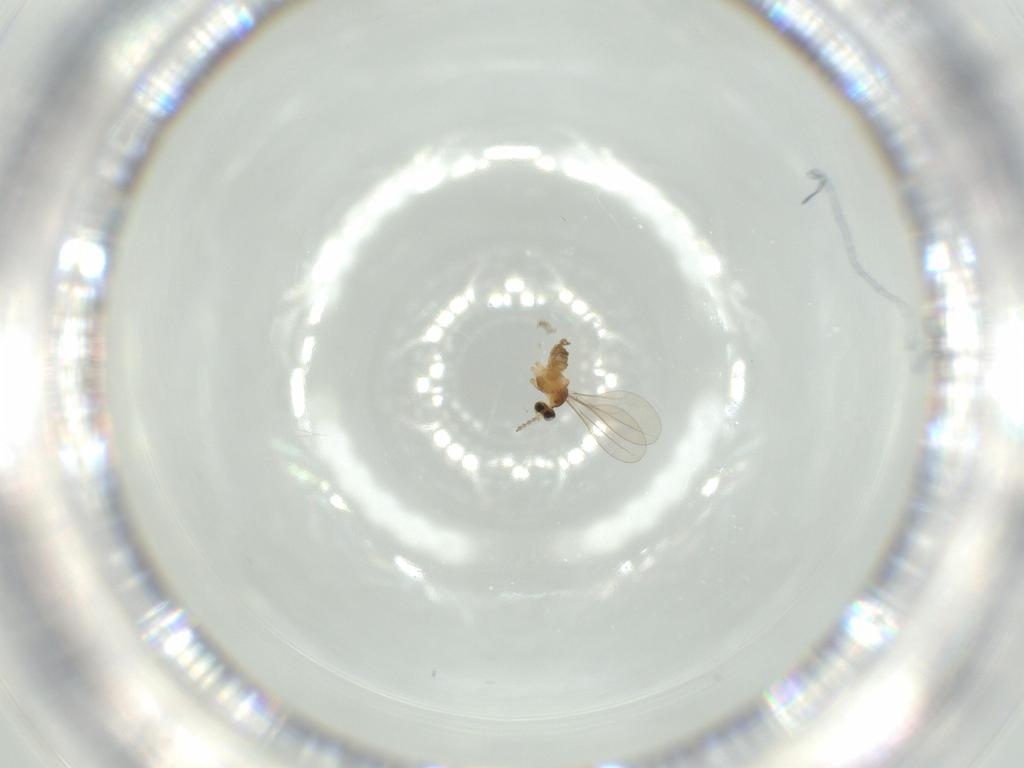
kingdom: Animalia
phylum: Arthropoda
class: Insecta
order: Diptera
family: Cecidomyiidae
